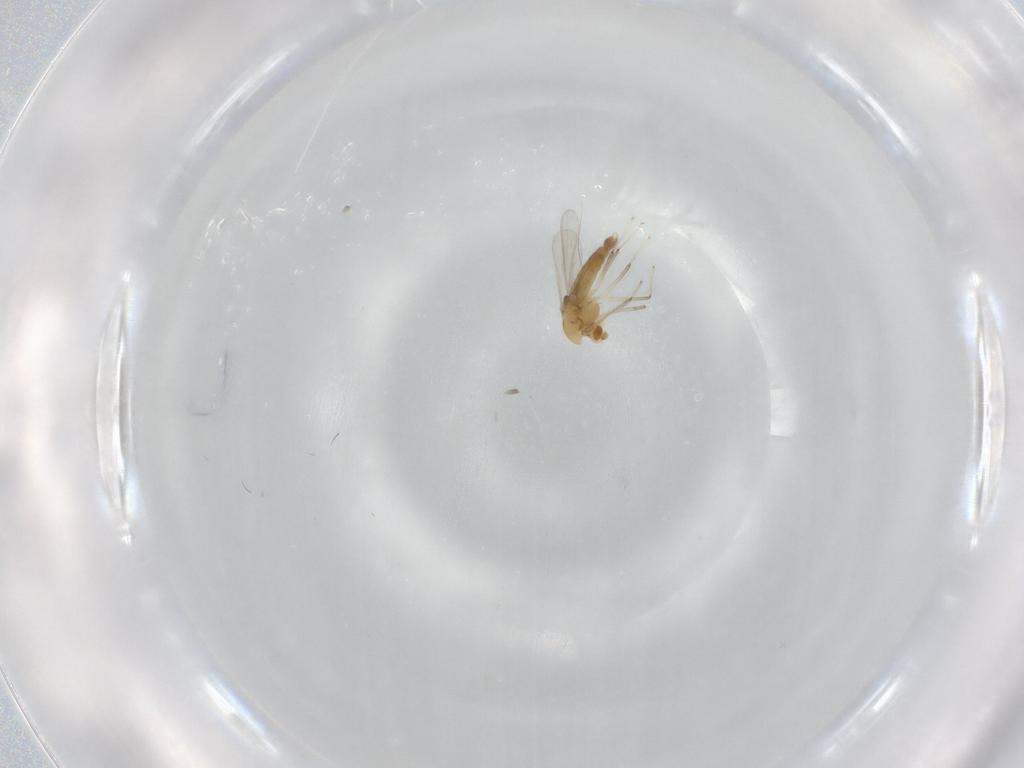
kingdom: Animalia
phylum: Arthropoda
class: Insecta
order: Diptera
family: Chironomidae
